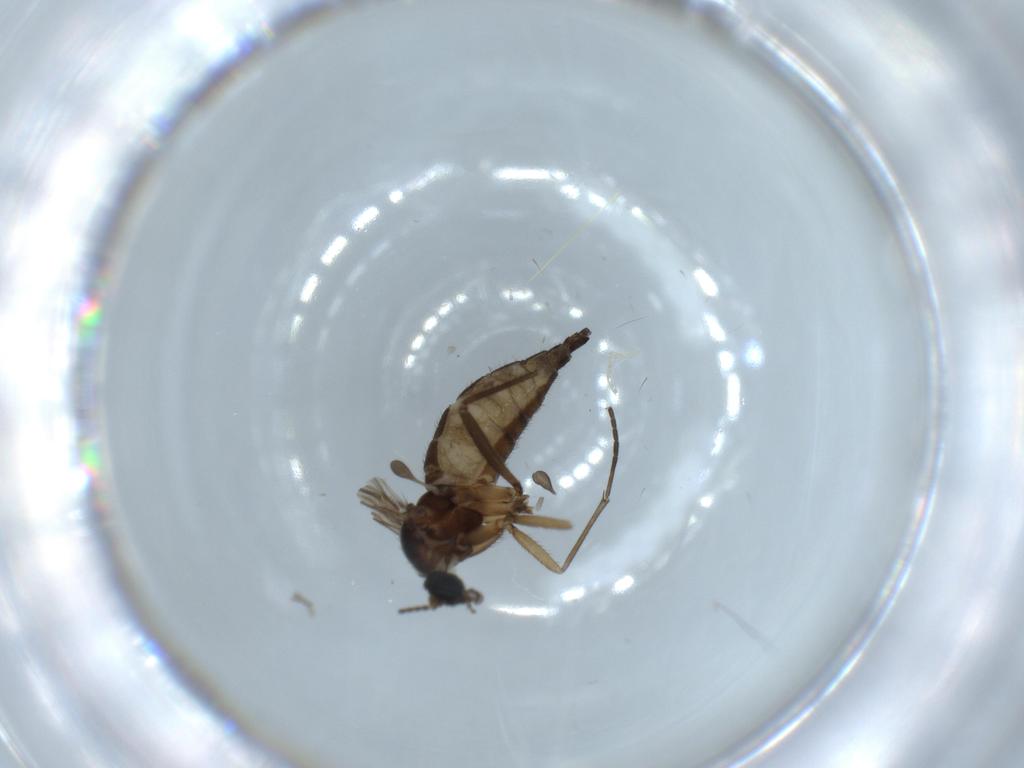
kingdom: Animalia
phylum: Arthropoda
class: Insecta
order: Diptera
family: Sciaridae
